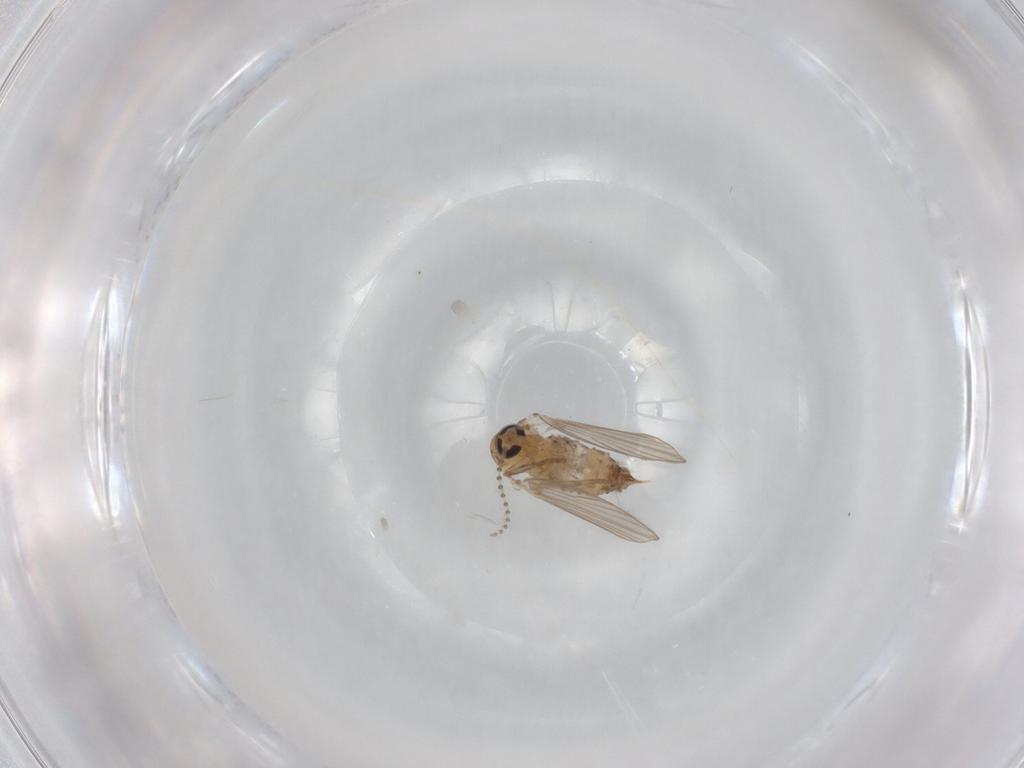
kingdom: Animalia
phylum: Arthropoda
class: Insecta
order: Diptera
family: Psychodidae
